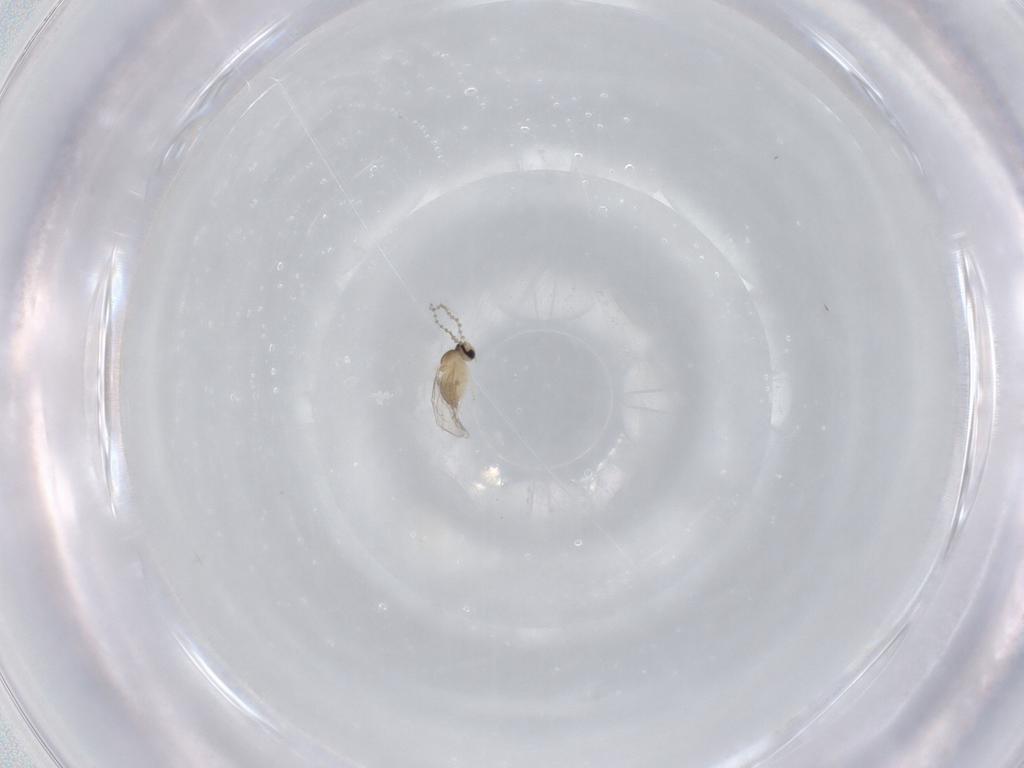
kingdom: Animalia
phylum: Arthropoda
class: Insecta
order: Diptera
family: Cecidomyiidae
